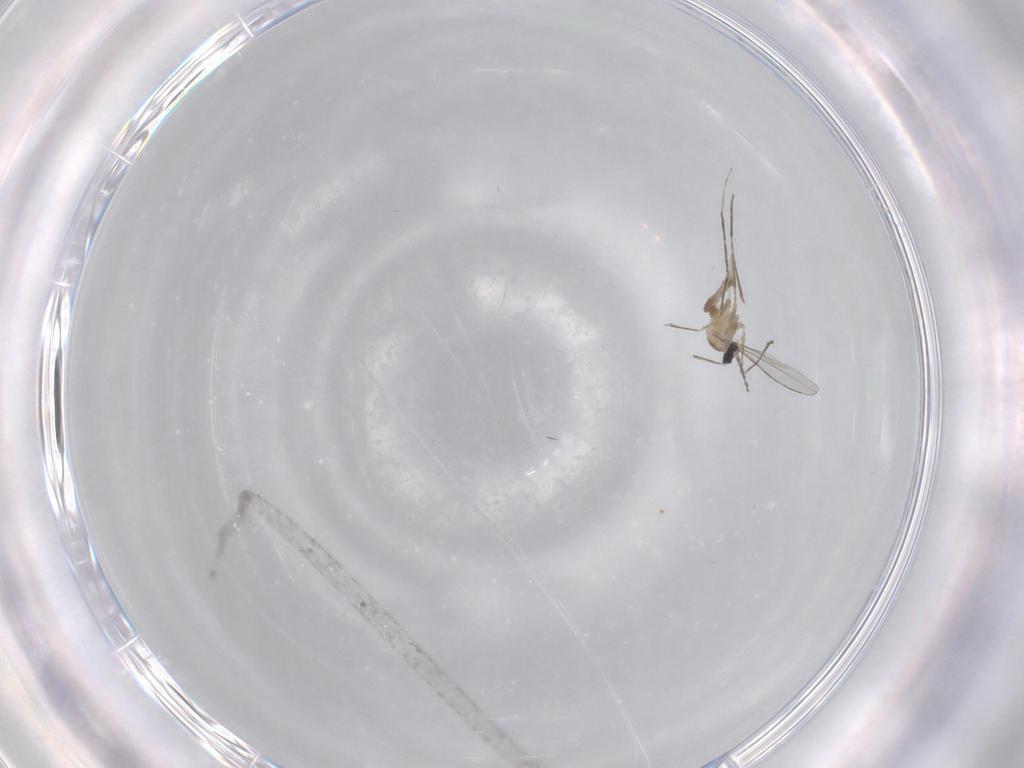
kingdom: Animalia
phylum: Arthropoda
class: Insecta
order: Diptera
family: Cecidomyiidae
